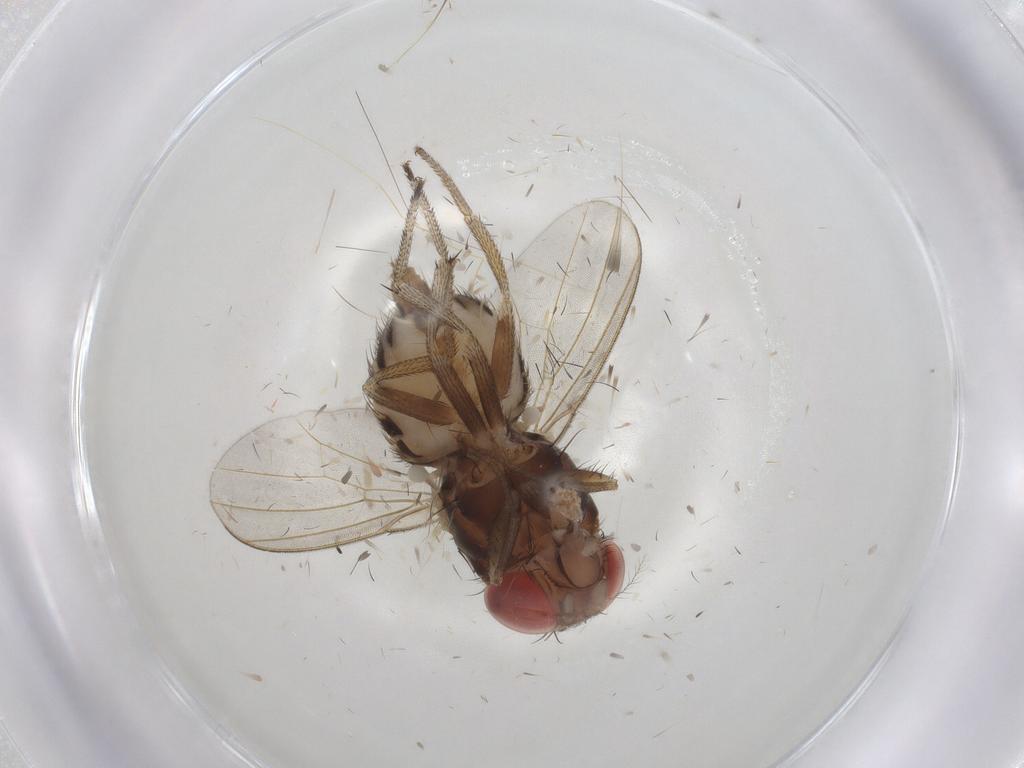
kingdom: Animalia
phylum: Arthropoda
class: Insecta
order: Diptera
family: Drosophilidae
